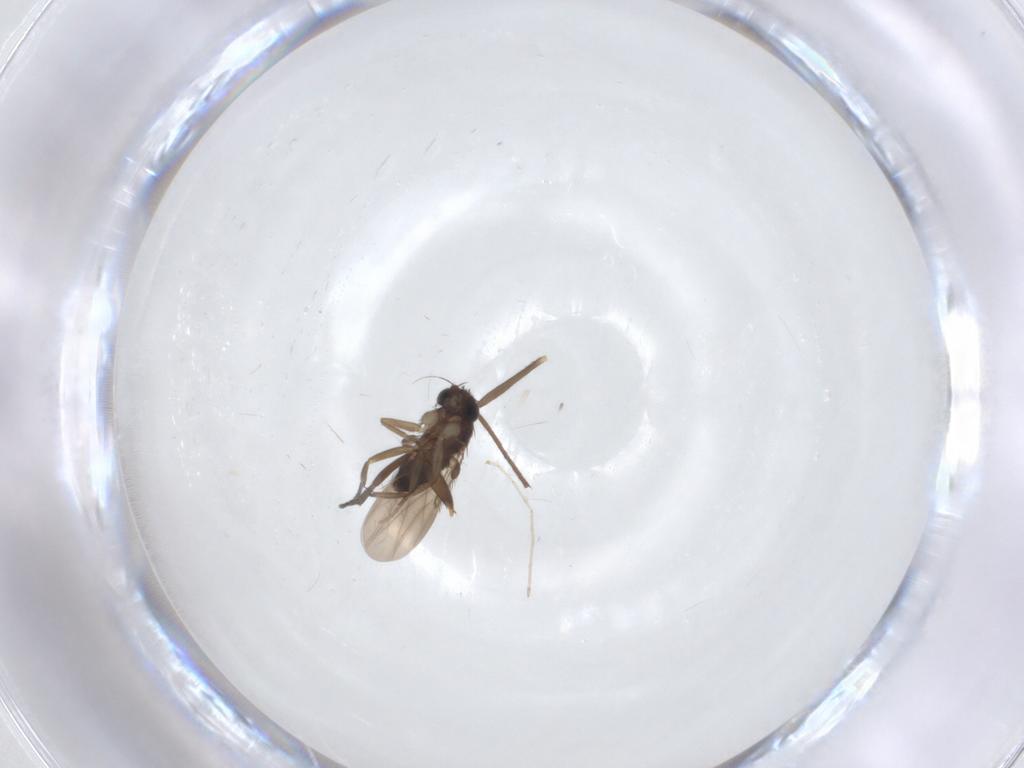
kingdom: Animalia
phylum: Arthropoda
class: Insecta
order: Diptera
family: Phoridae
